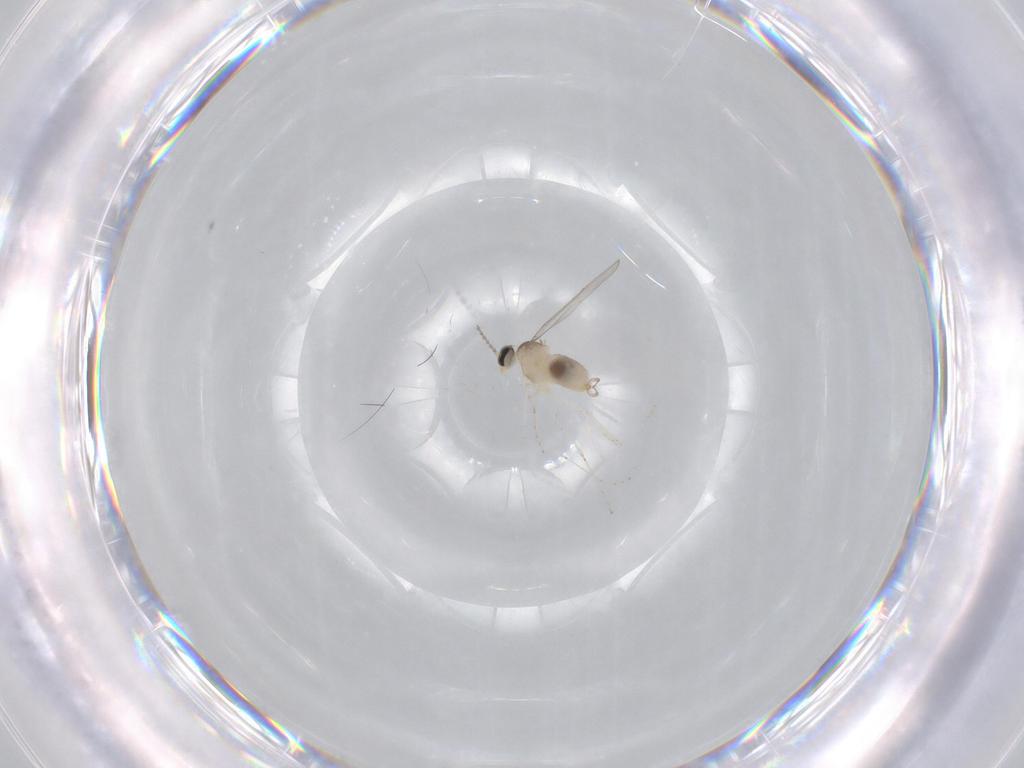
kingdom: Animalia
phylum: Arthropoda
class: Insecta
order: Diptera
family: Cecidomyiidae
